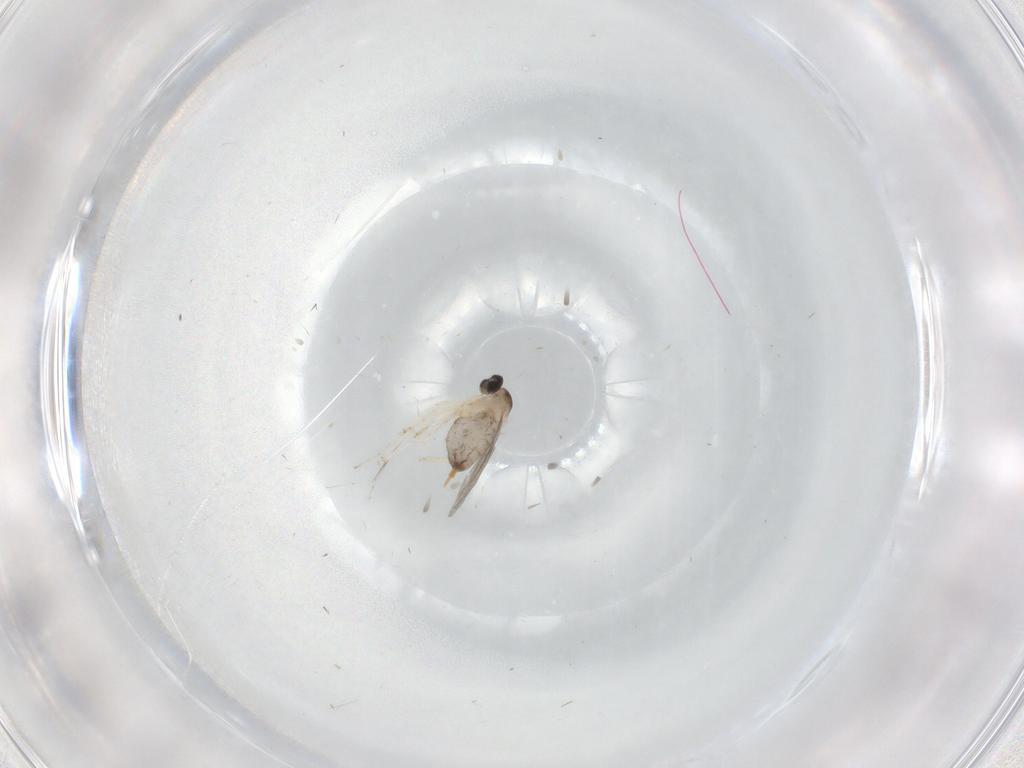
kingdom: Animalia
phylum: Arthropoda
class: Insecta
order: Diptera
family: Cecidomyiidae
